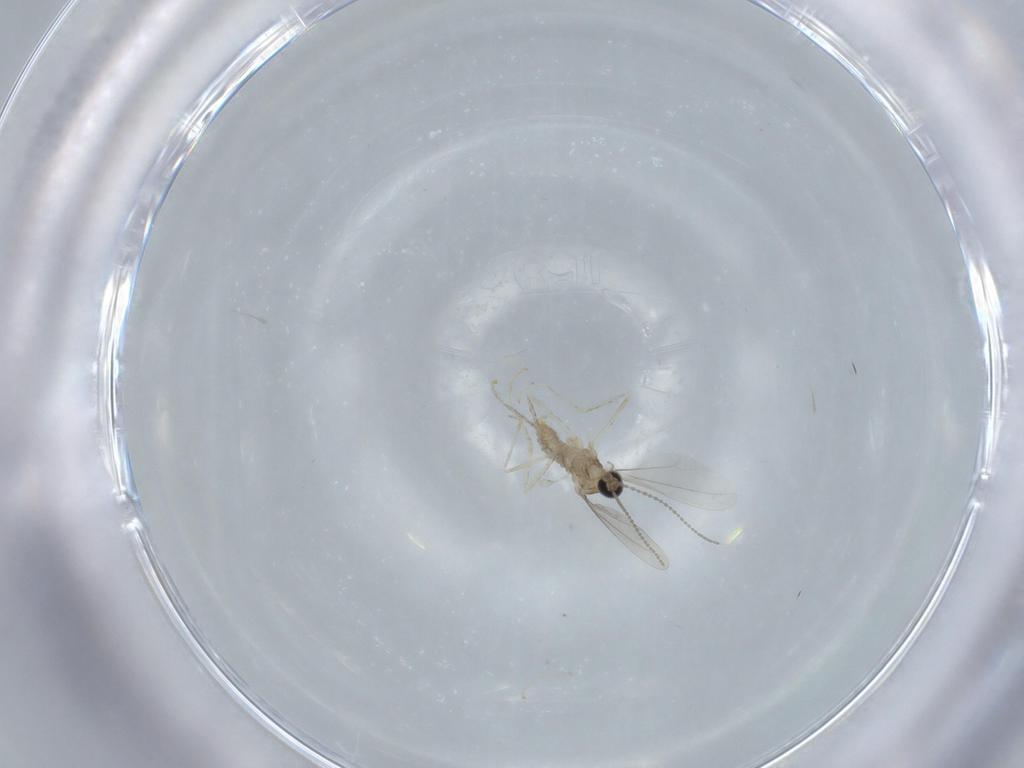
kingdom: Animalia
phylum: Arthropoda
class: Insecta
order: Diptera
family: Cecidomyiidae
